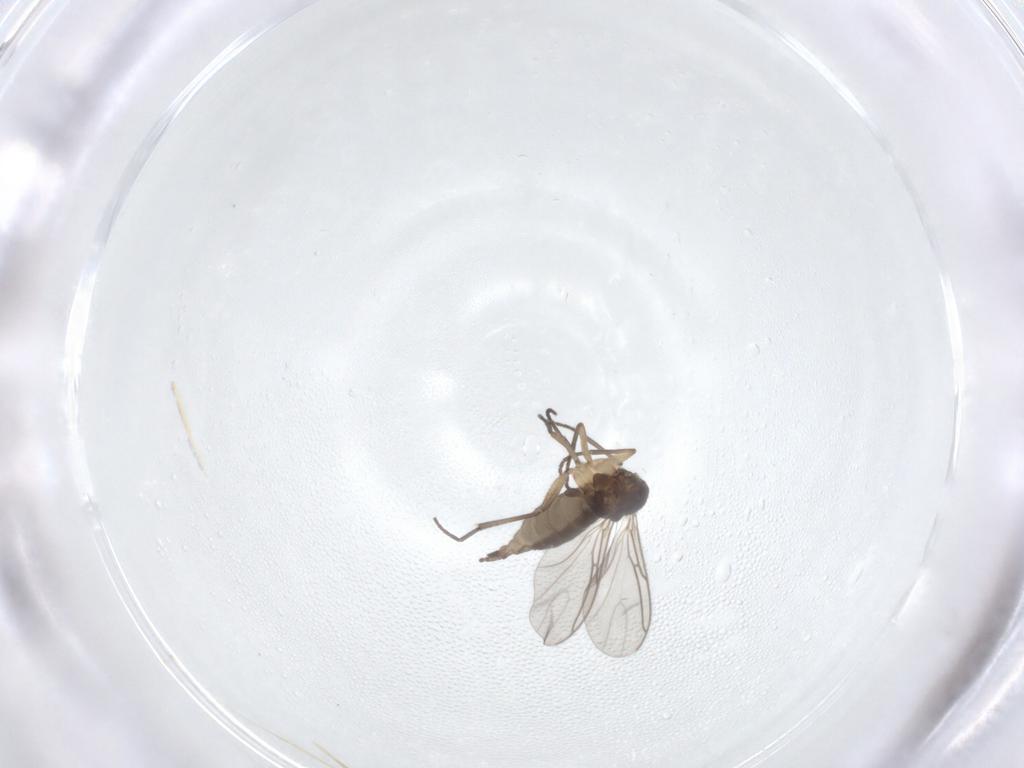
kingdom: Animalia
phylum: Arthropoda
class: Insecta
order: Diptera
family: Sciaridae
